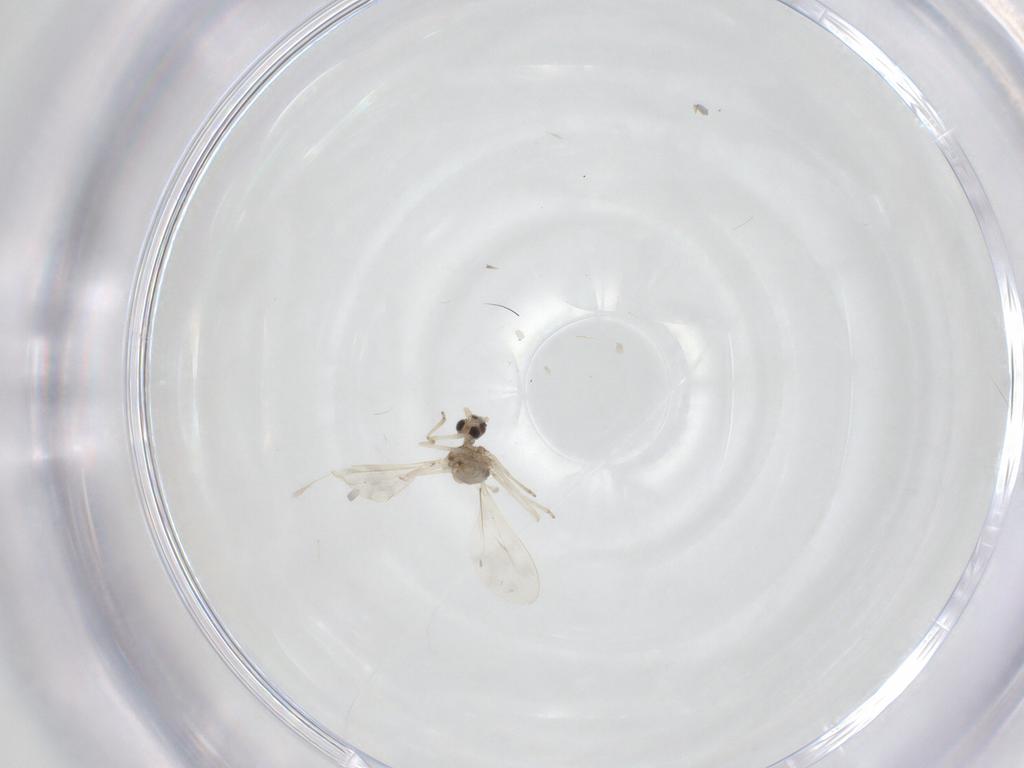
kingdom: Animalia
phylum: Arthropoda
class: Insecta
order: Diptera
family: Cecidomyiidae
